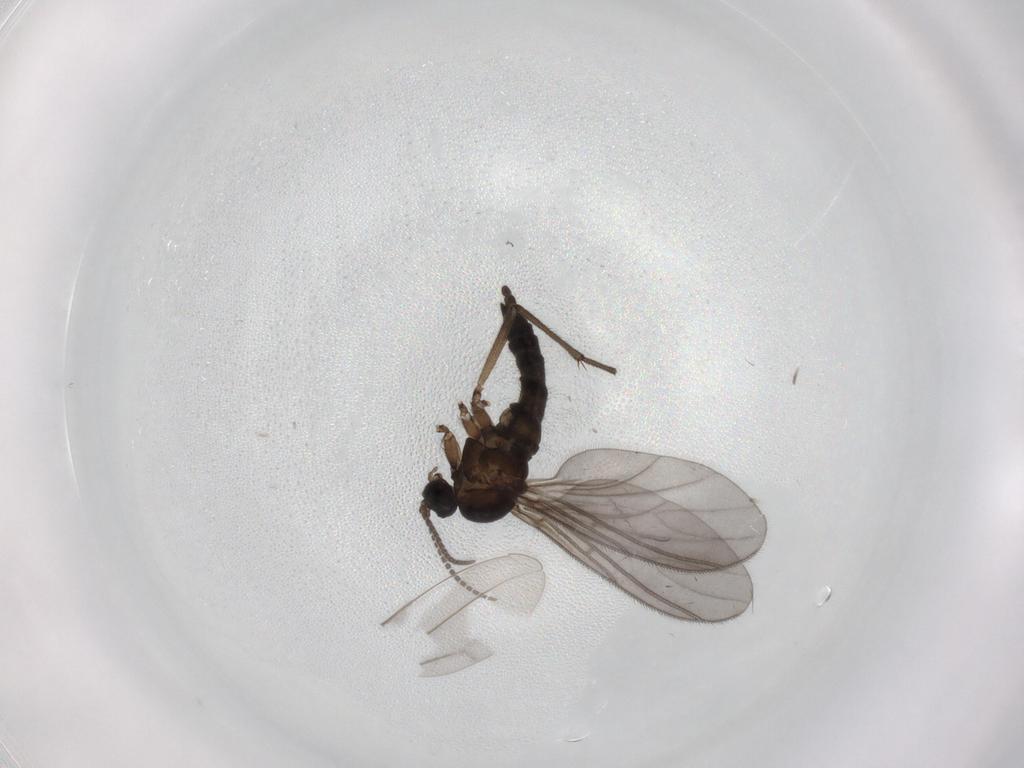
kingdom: Animalia
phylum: Arthropoda
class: Insecta
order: Diptera
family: Sciaridae
